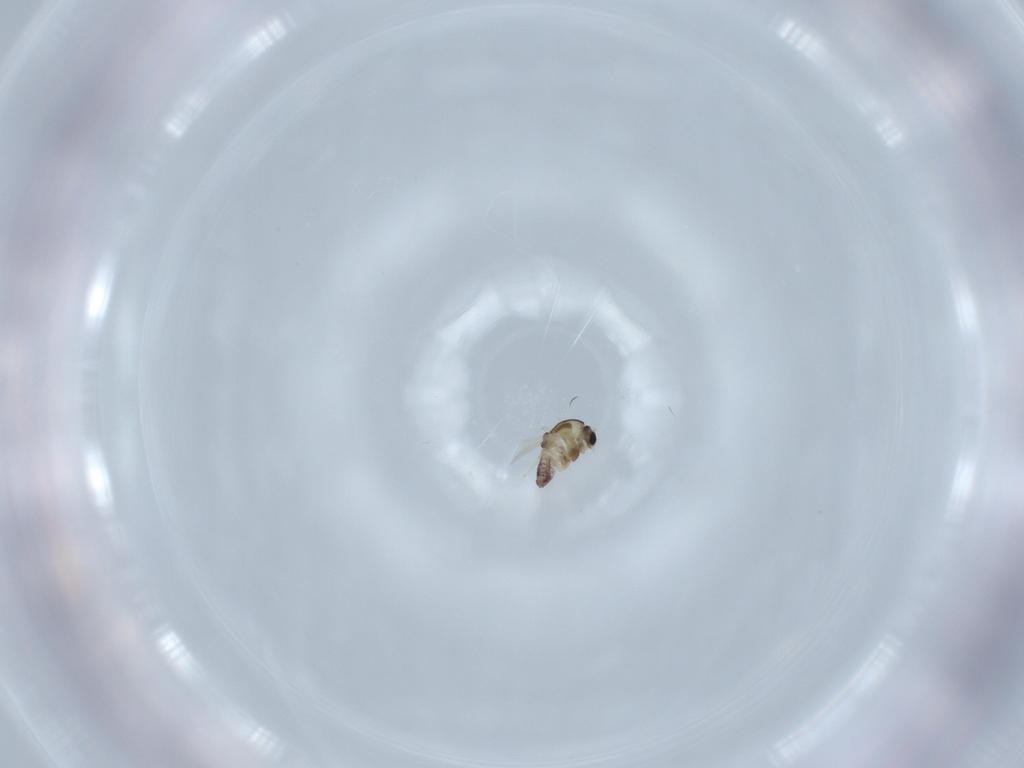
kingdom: Animalia
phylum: Arthropoda
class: Insecta
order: Diptera
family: Chironomidae
